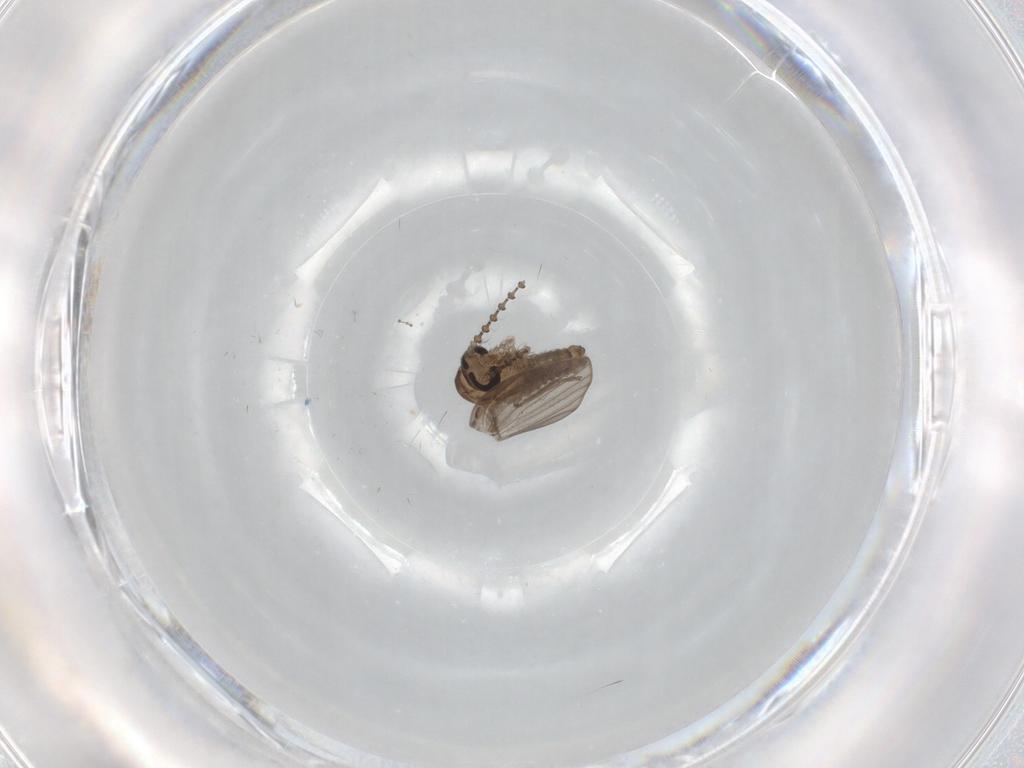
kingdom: Animalia
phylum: Arthropoda
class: Insecta
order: Diptera
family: Psychodidae
